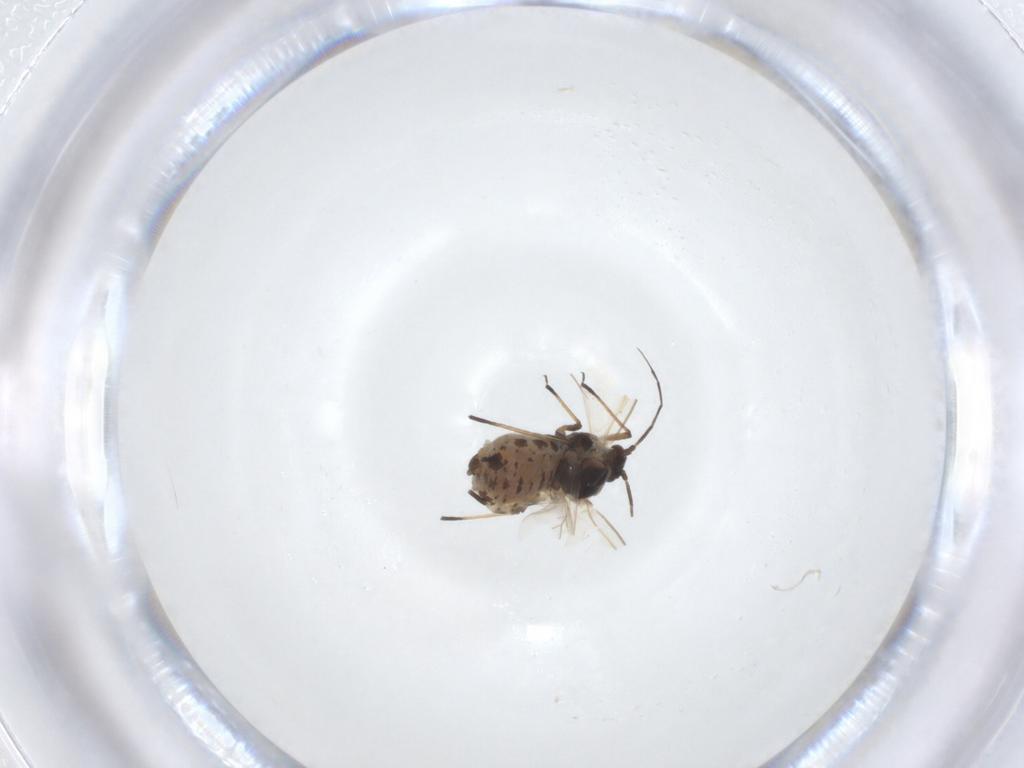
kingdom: Animalia
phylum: Arthropoda
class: Insecta
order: Hemiptera
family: Aphididae
